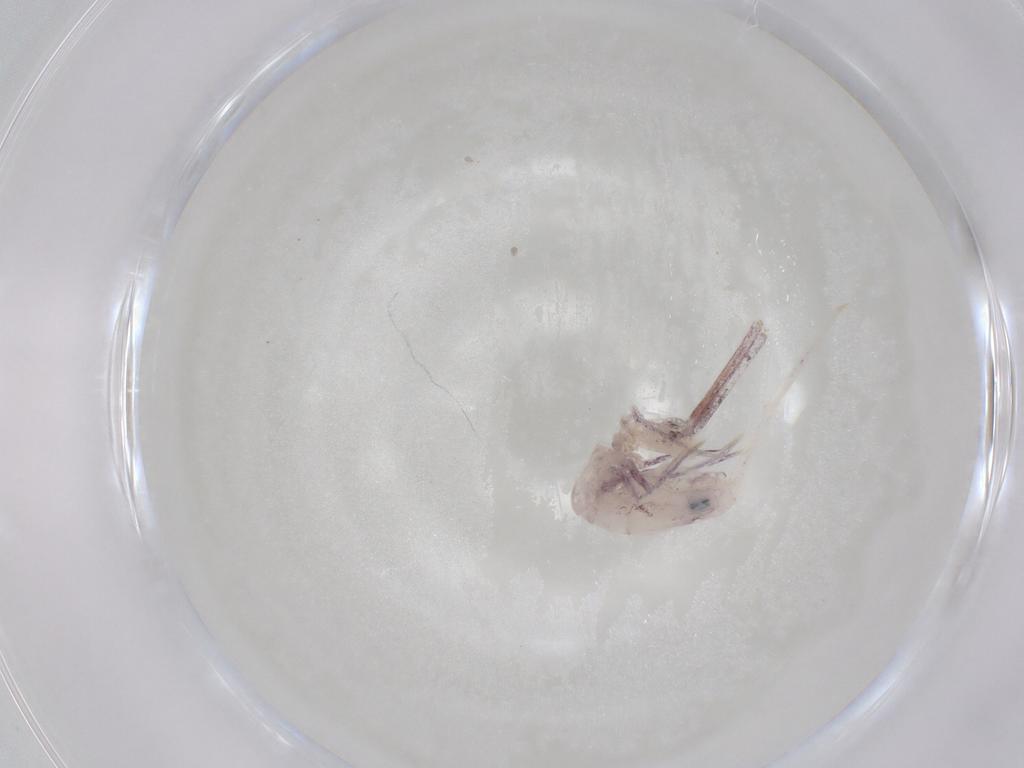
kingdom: Animalia
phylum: Arthropoda
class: Collembola
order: Entomobryomorpha
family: Entomobryidae
